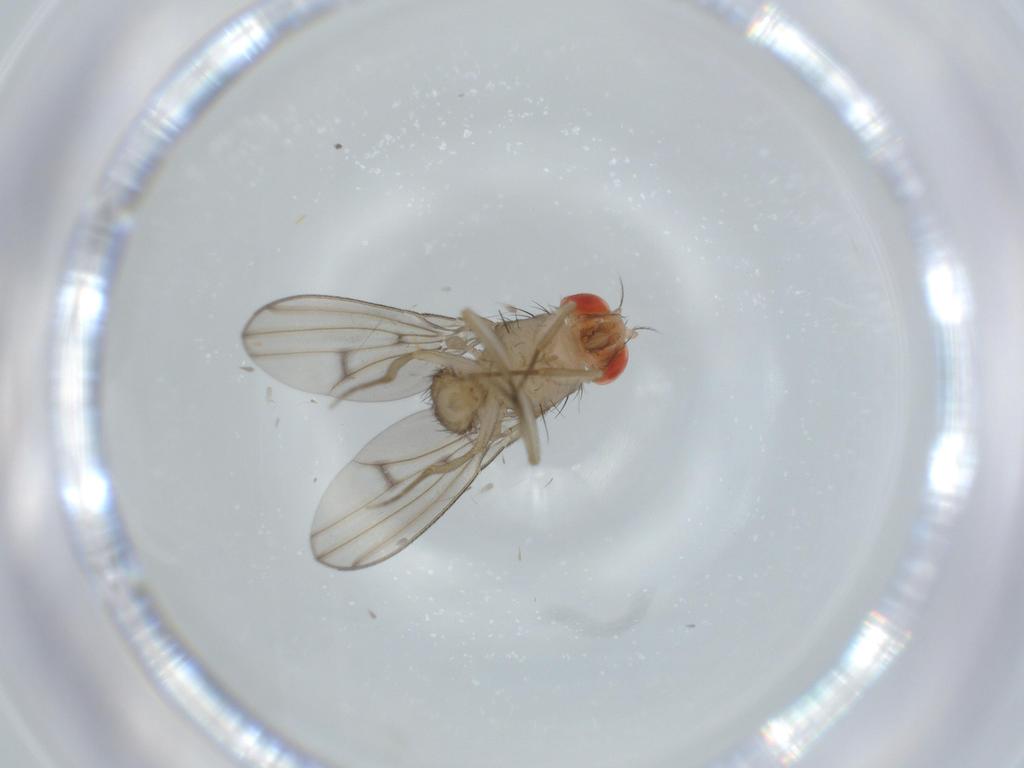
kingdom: Animalia
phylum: Arthropoda
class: Insecta
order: Diptera
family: Drosophilidae
